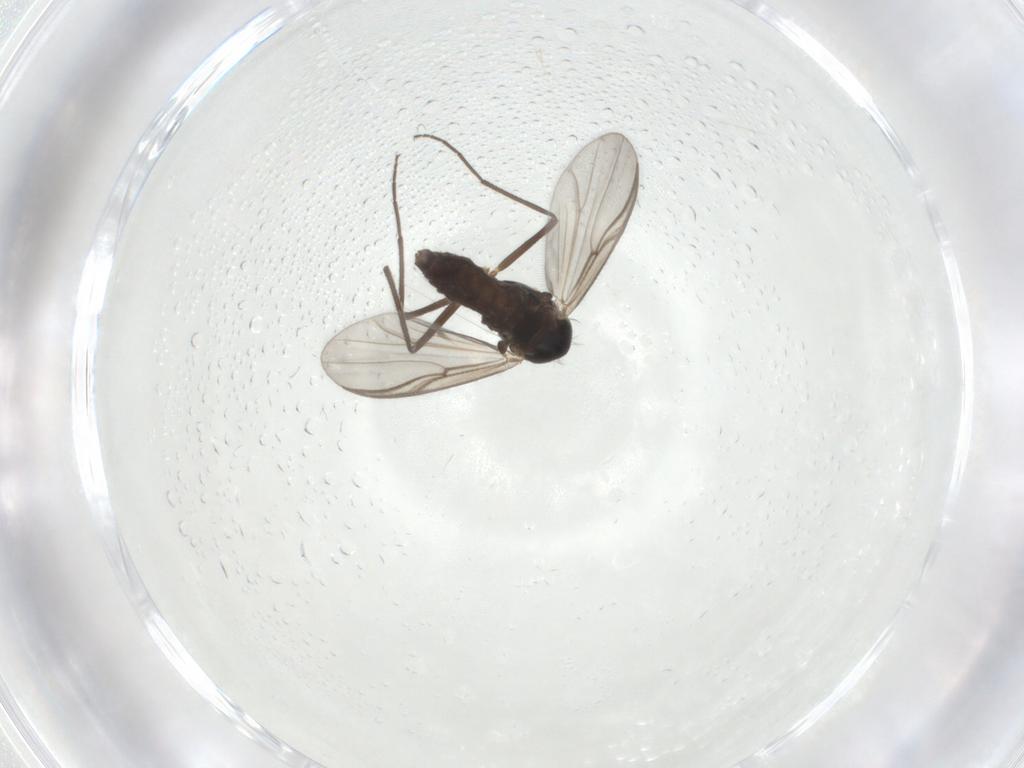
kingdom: Animalia
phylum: Arthropoda
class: Insecta
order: Diptera
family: Chironomidae
